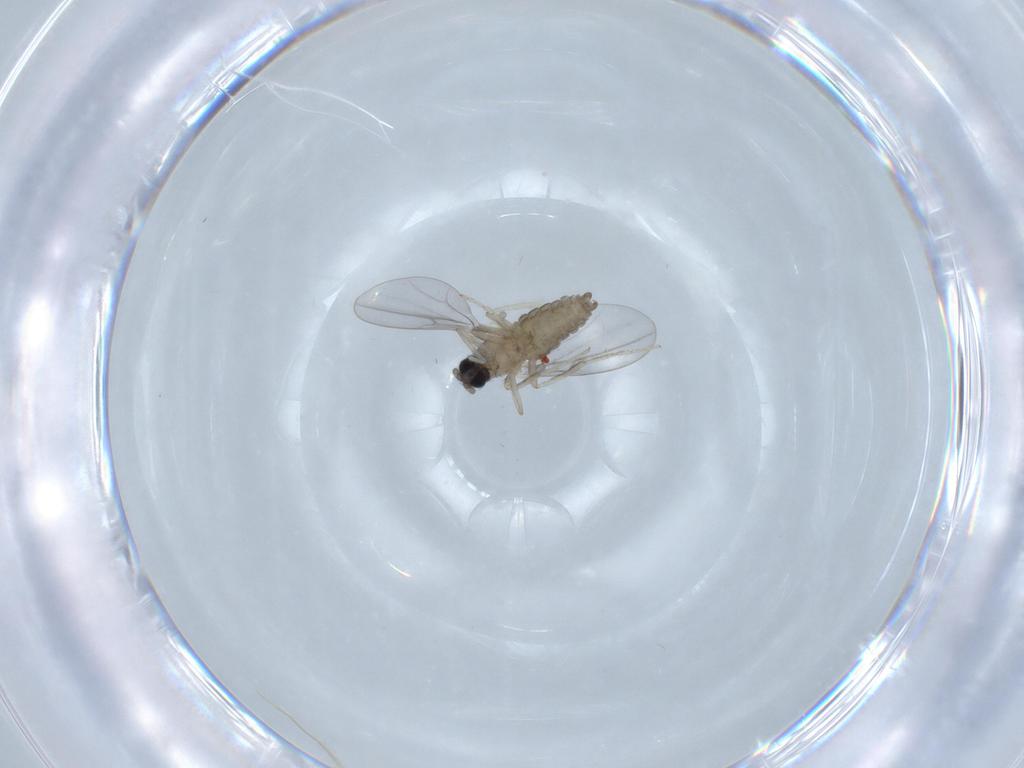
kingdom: Animalia
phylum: Arthropoda
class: Insecta
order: Diptera
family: Cecidomyiidae
